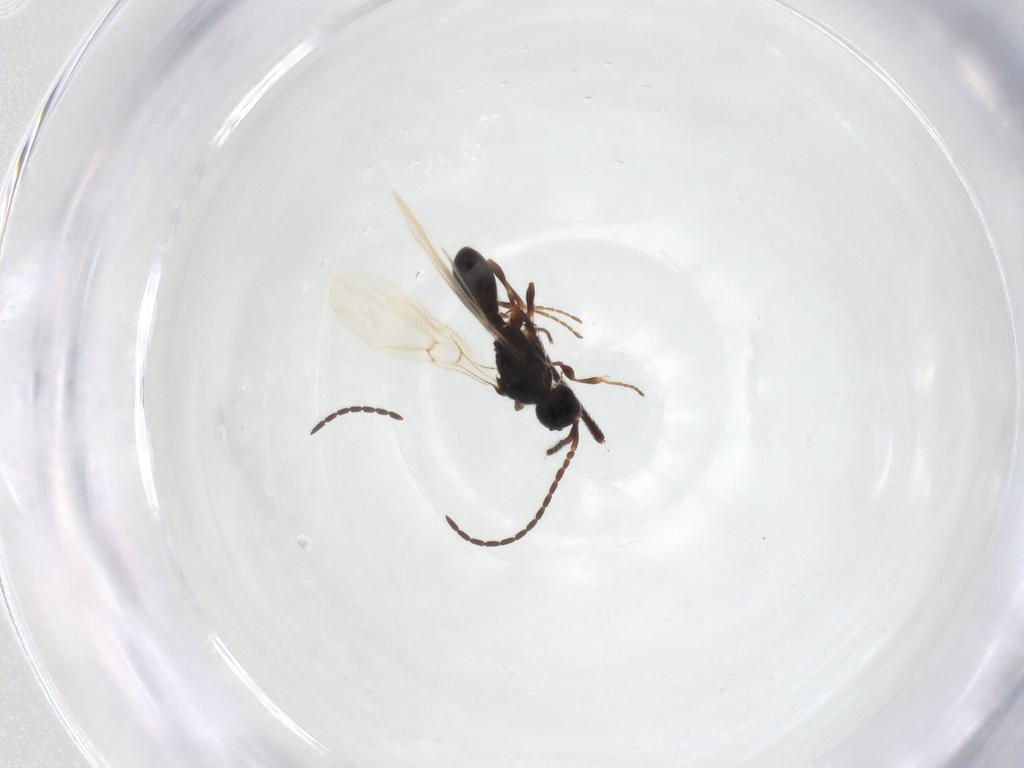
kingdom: Animalia
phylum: Arthropoda
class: Insecta
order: Hymenoptera
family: Diapriidae
